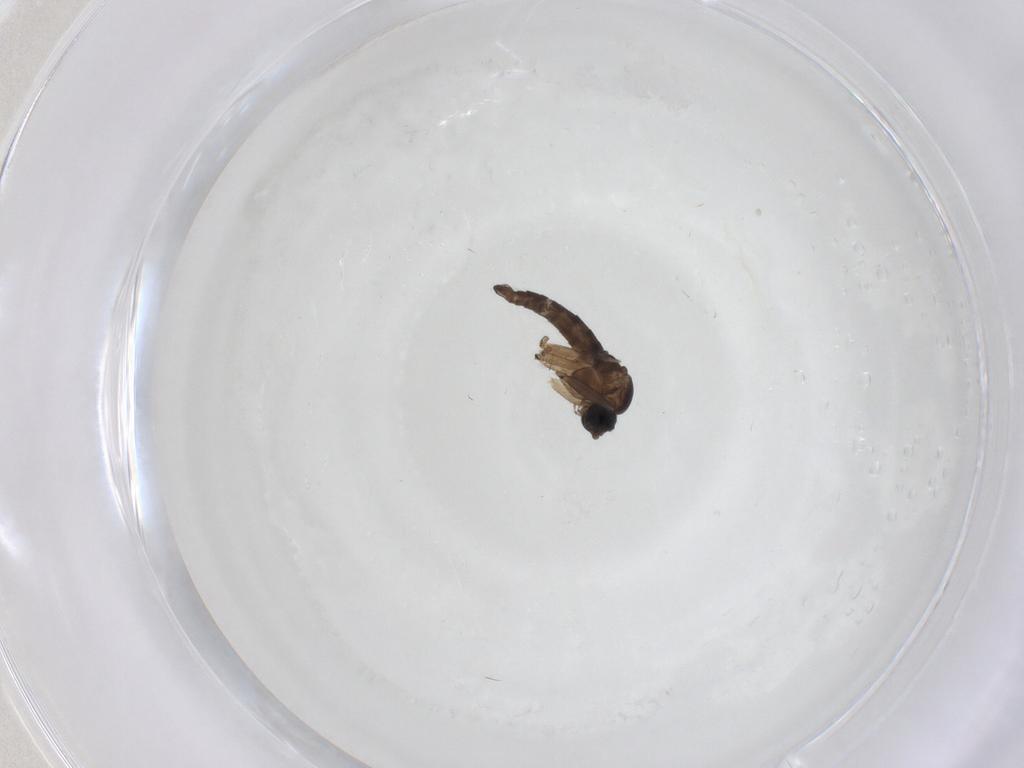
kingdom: Animalia
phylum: Arthropoda
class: Insecta
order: Diptera
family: Sciaridae
